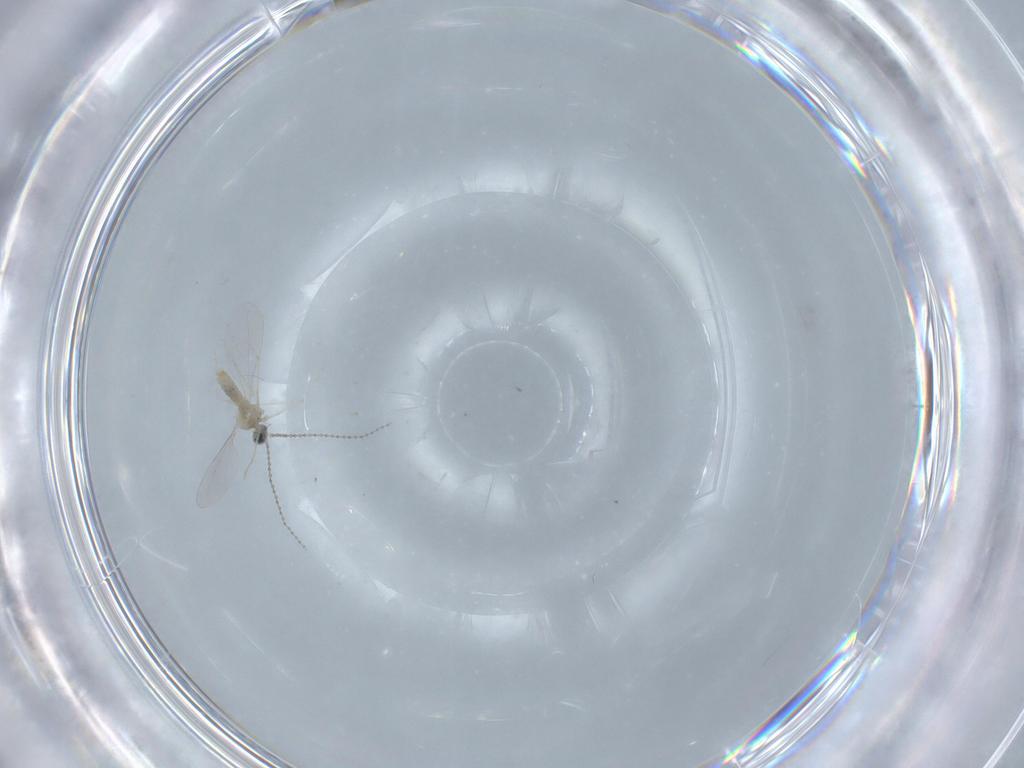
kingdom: Animalia
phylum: Arthropoda
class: Insecta
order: Diptera
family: Cecidomyiidae
